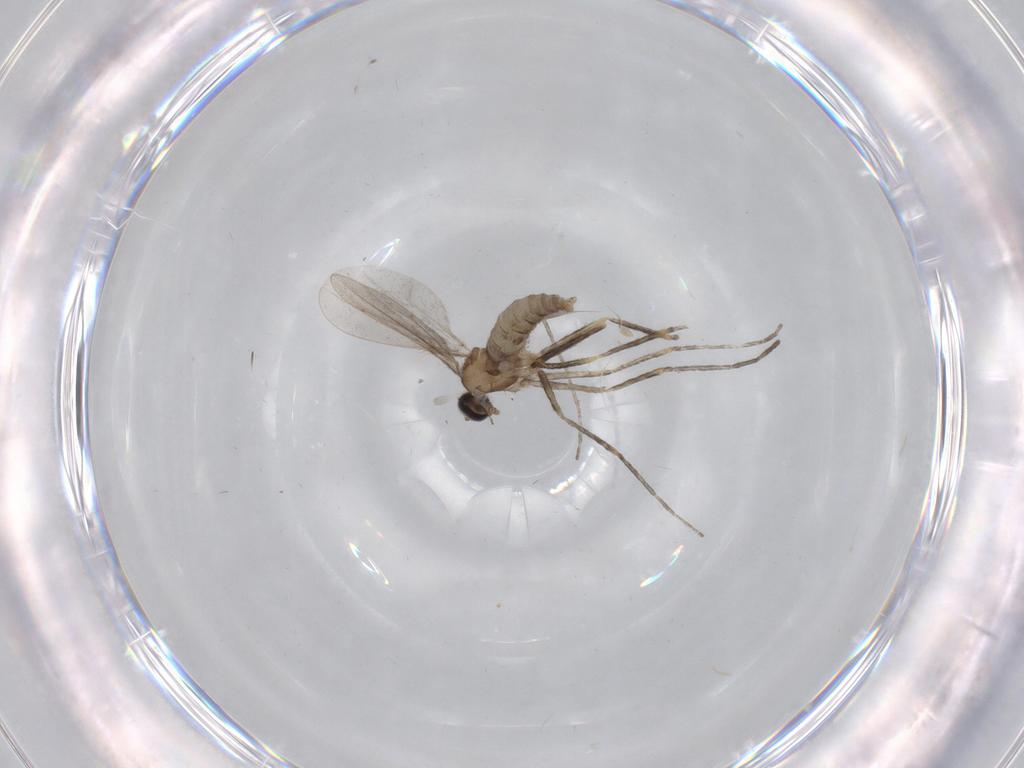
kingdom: Animalia
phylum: Arthropoda
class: Insecta
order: Diptera
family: Cecidomyiidae
